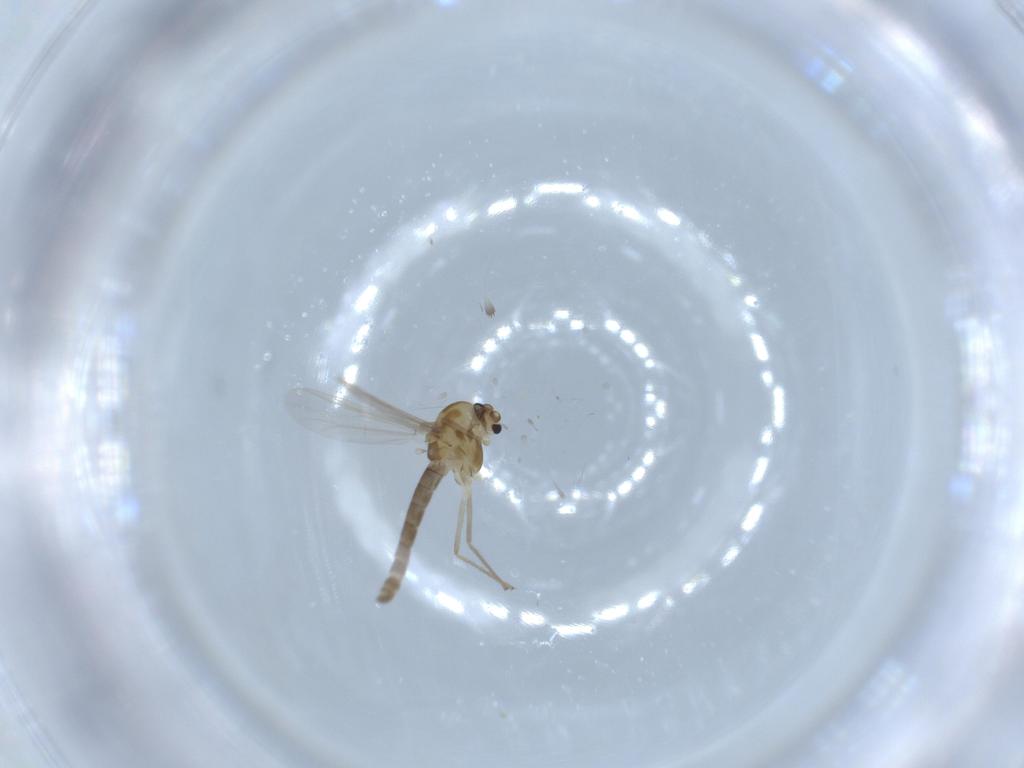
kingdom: Animalia
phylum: Arthropoda
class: Insecta
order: Diptera
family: Chironomidae
